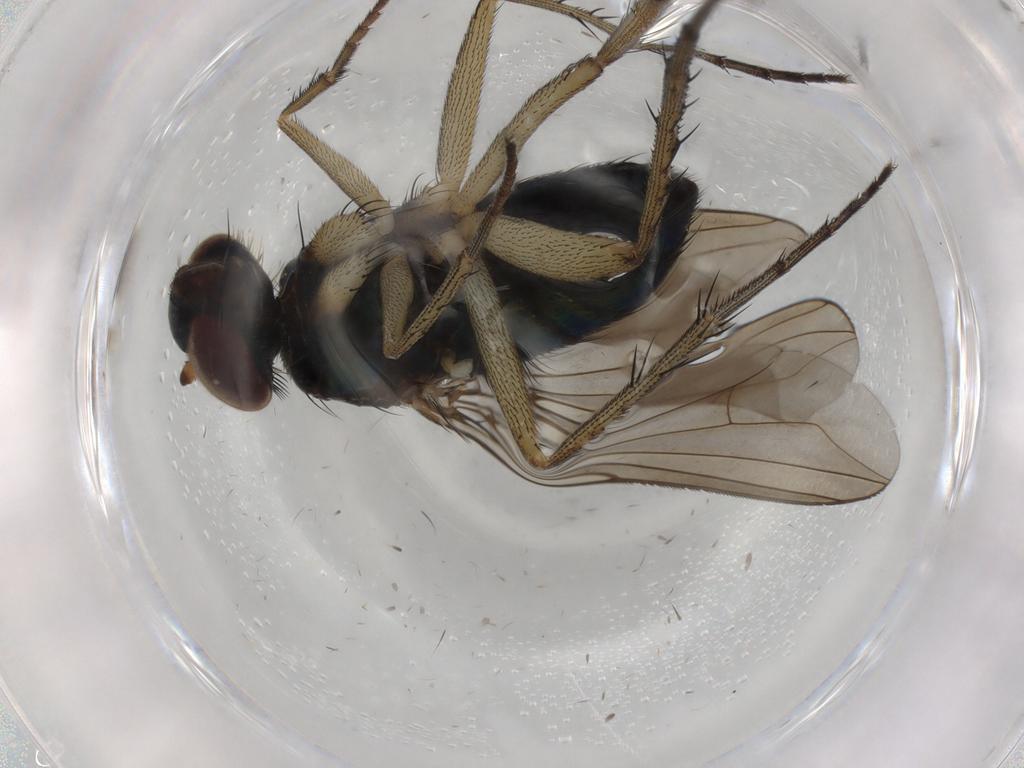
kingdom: Animalia
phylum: Arthropoda
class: Insecta
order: Diptera
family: Dolichopodidae
